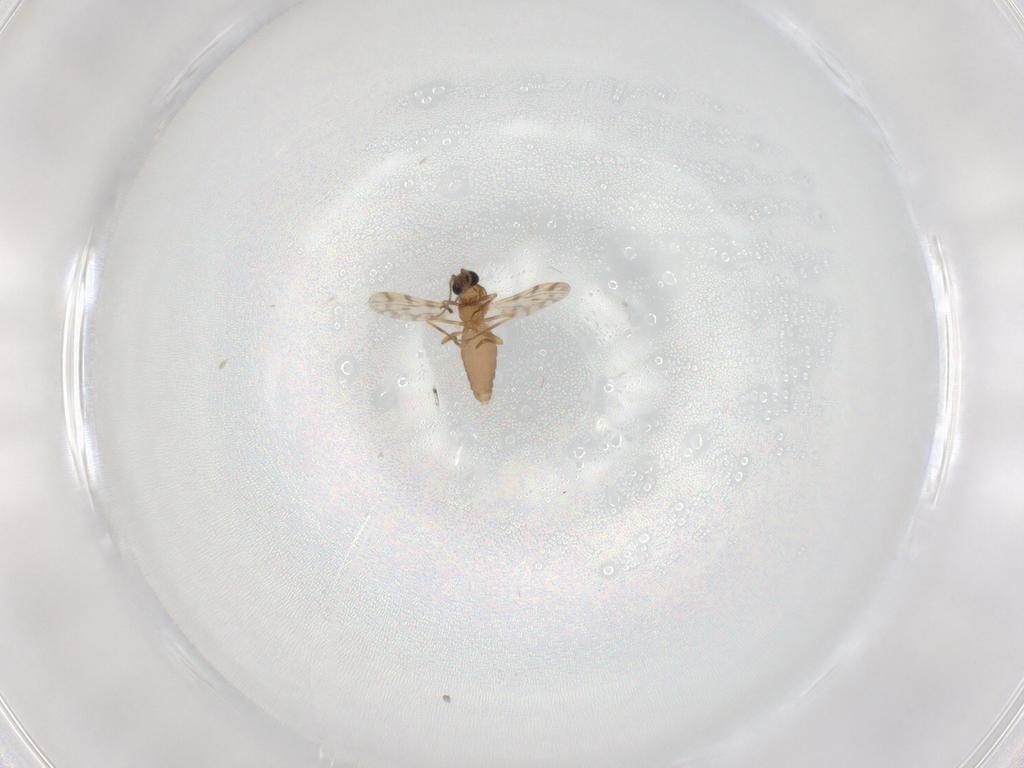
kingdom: Animalia
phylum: Arthropoda
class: Insecta
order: Diptera
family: Ceratopogonidae
